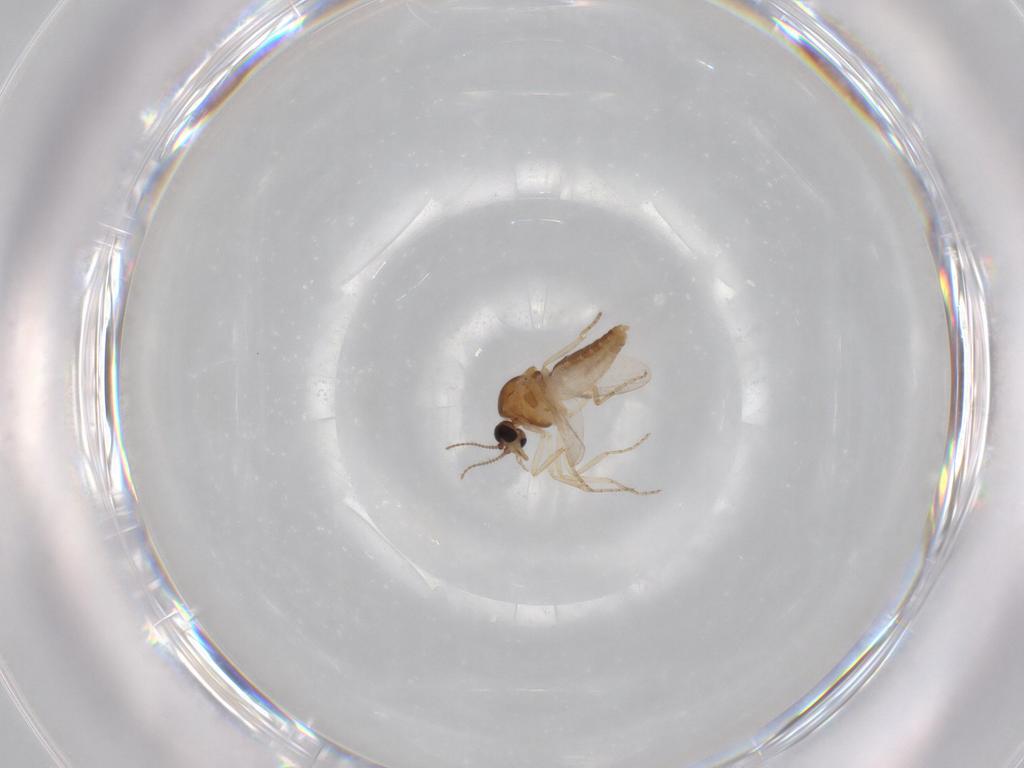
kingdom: Animalia
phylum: Arthropoda
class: Insecta
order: Diptera
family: Ceratopogonidae
